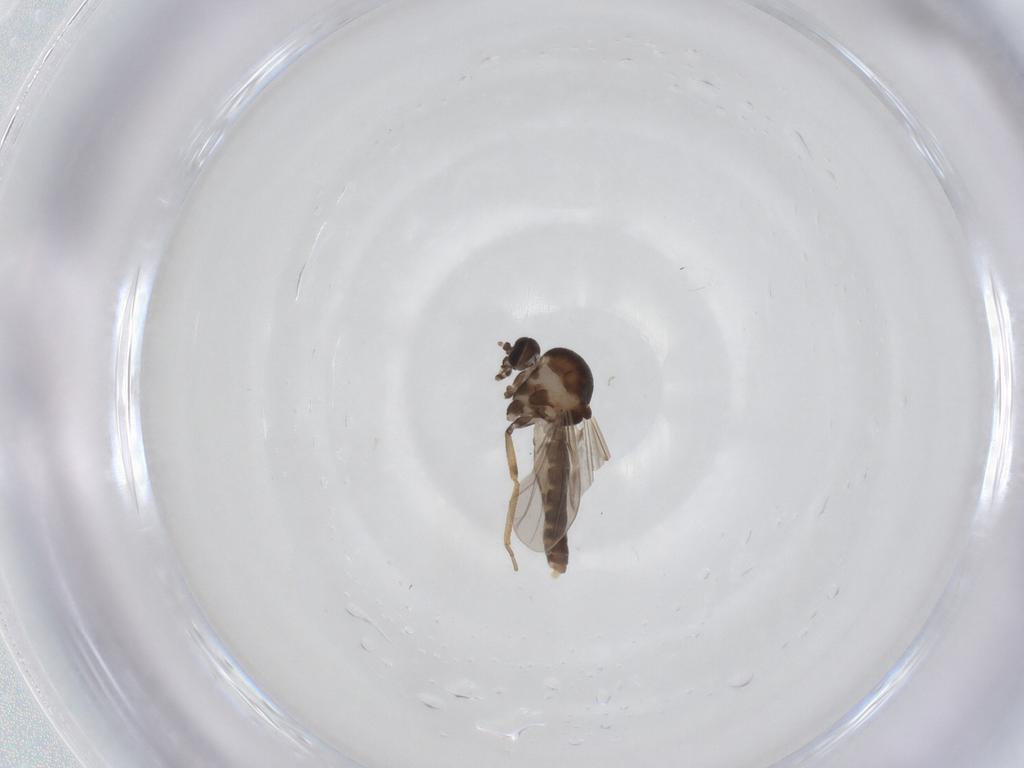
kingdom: Animalia
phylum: Arthropoda
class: Insecta
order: Diptera
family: Ceratopogonidae
